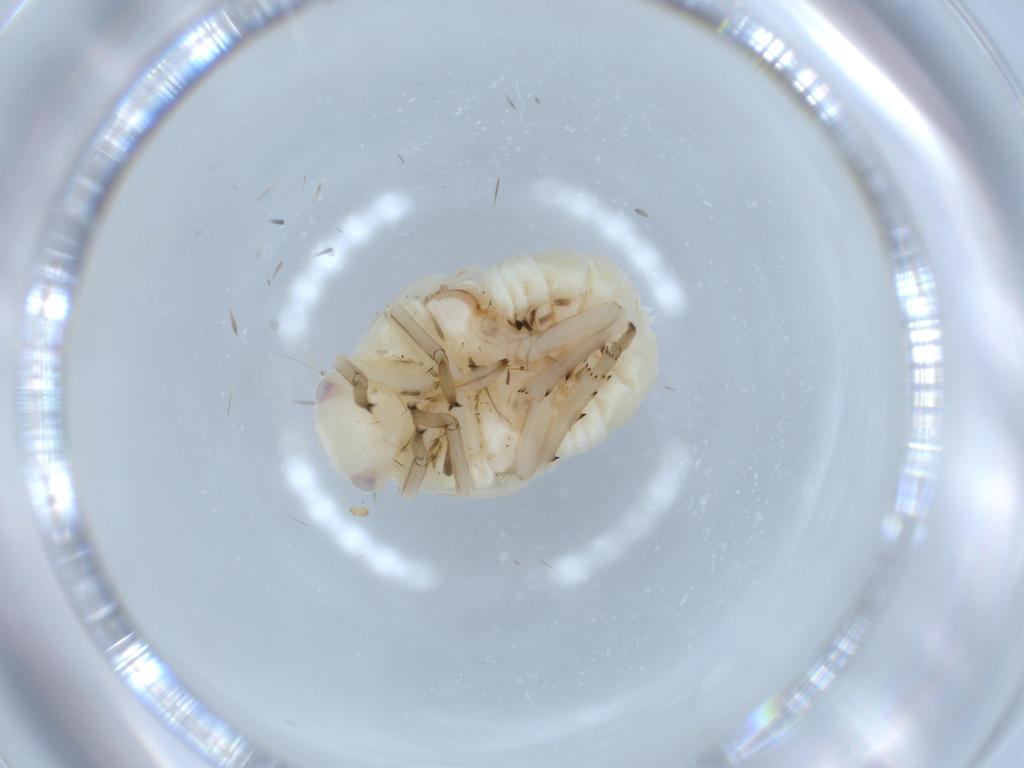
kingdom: Animalia
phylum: Arthropoda
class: Insecta
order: Hemiptera
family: Flatidae
